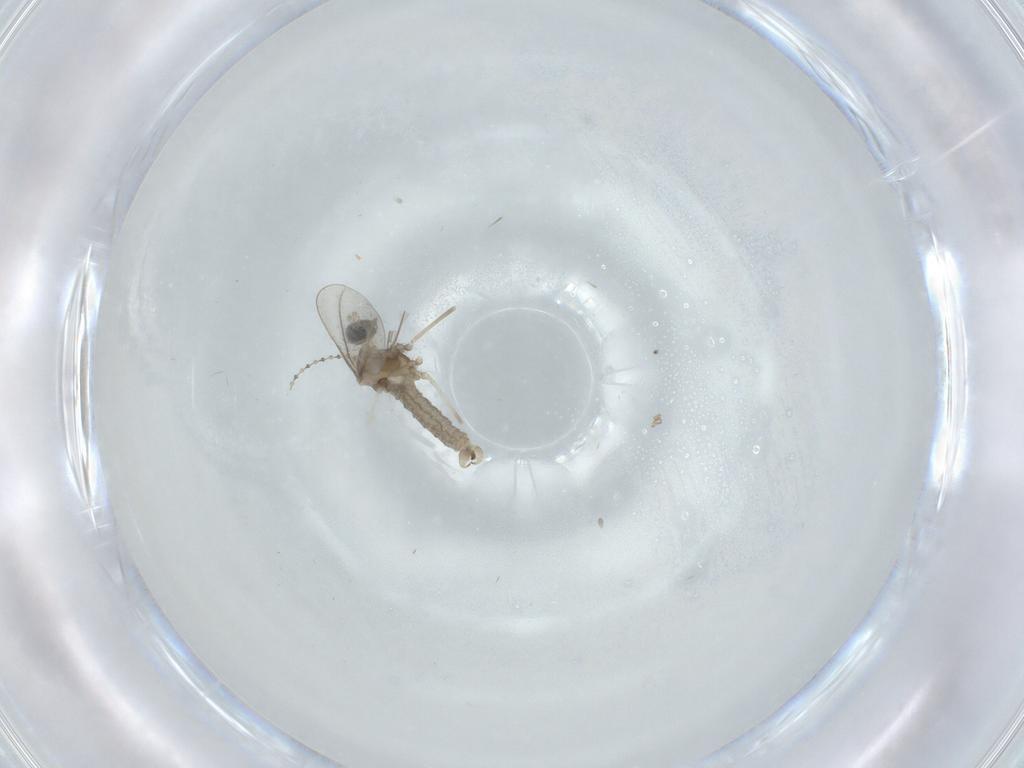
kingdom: Animalia
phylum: Arthropoda
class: Insecta
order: Diptera
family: Cecidomyiidae
